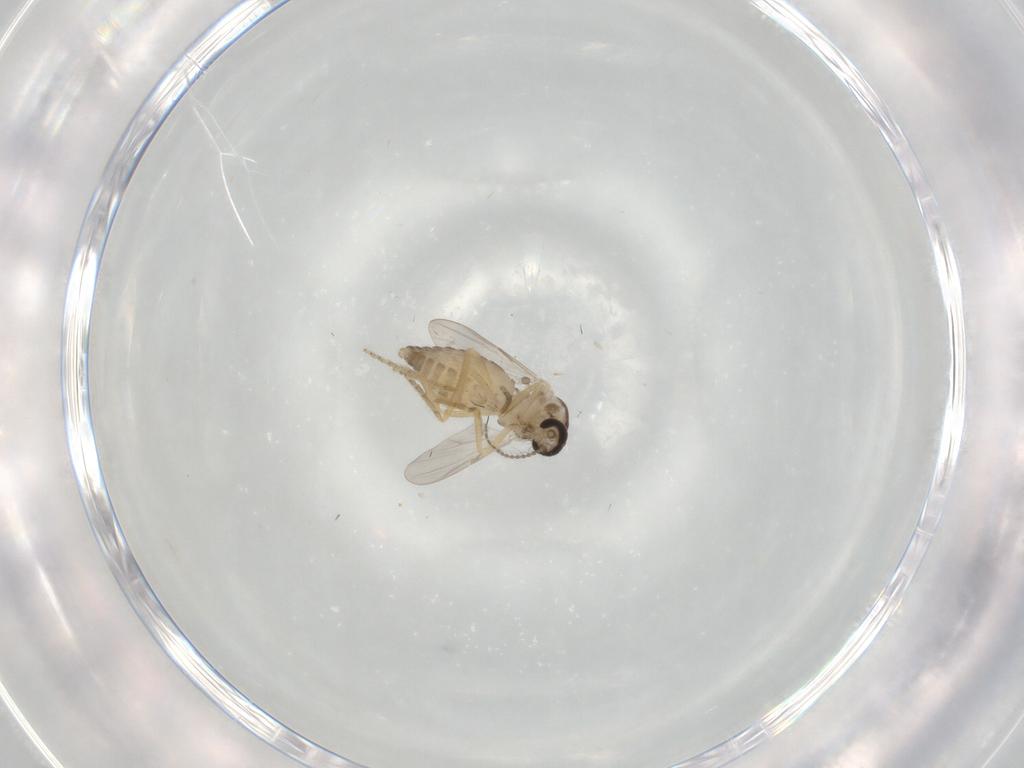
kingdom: Animalia
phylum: Arthropoda
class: Insecta
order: Diptera
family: Ceratopogonidae
